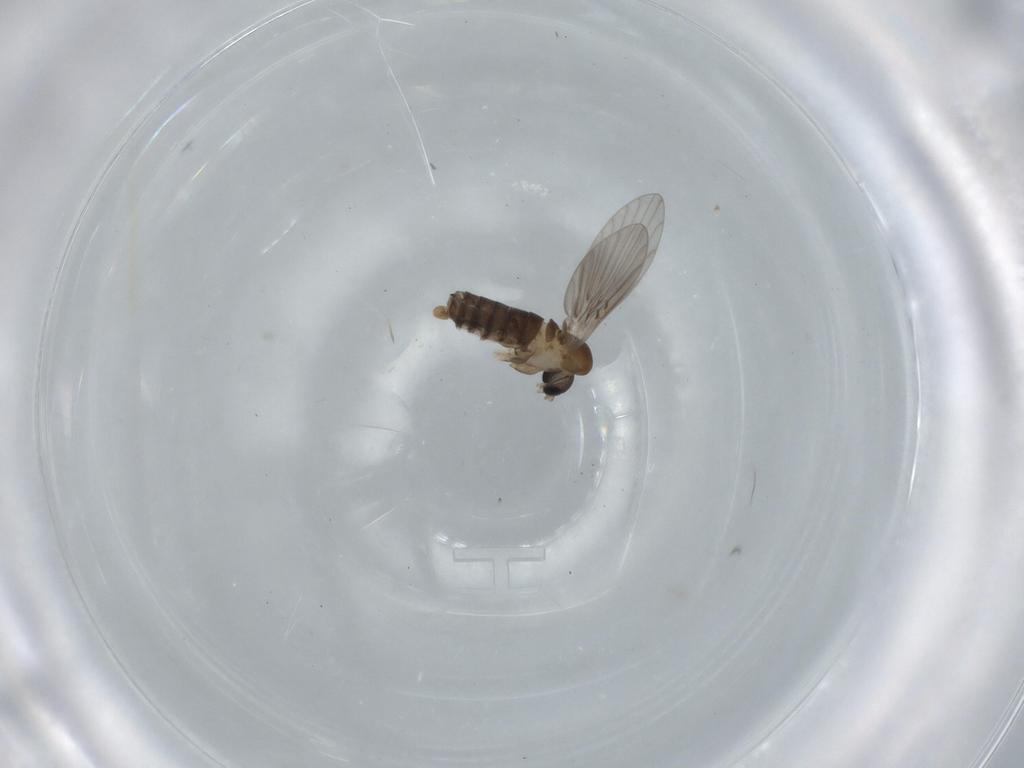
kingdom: Animalia
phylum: Arthropoda
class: Insecta
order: Diptera
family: Psychodidae
